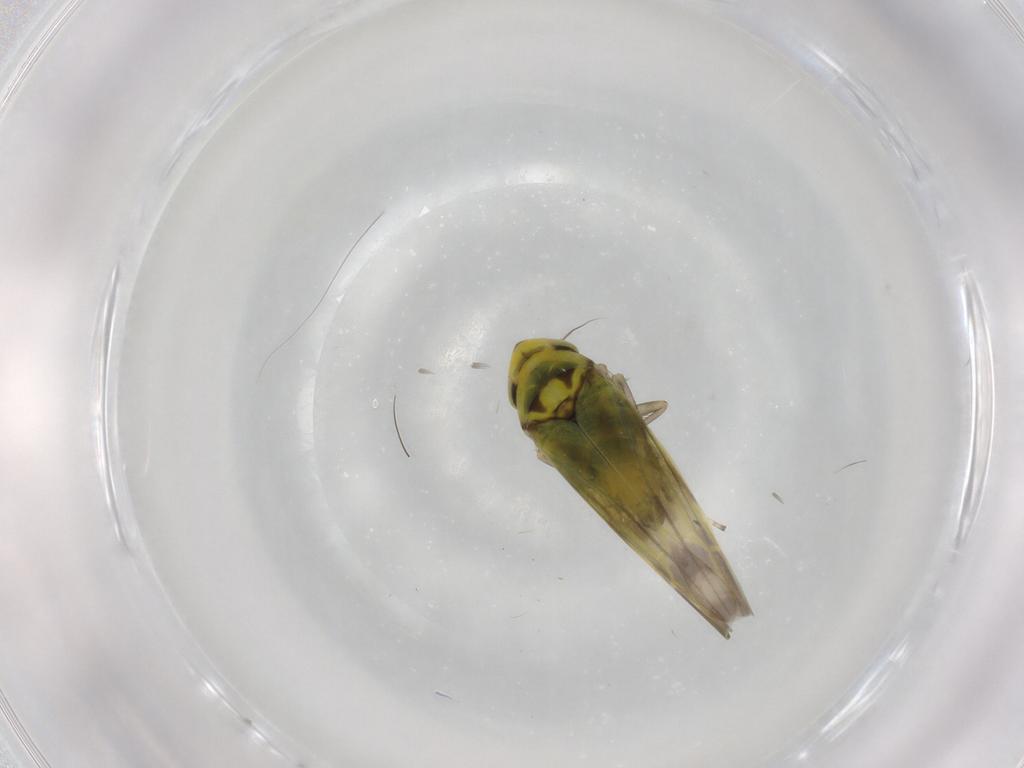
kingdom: Animalia
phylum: Arthropoda
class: Insecta
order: Hemiptera
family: Cicadellidae
